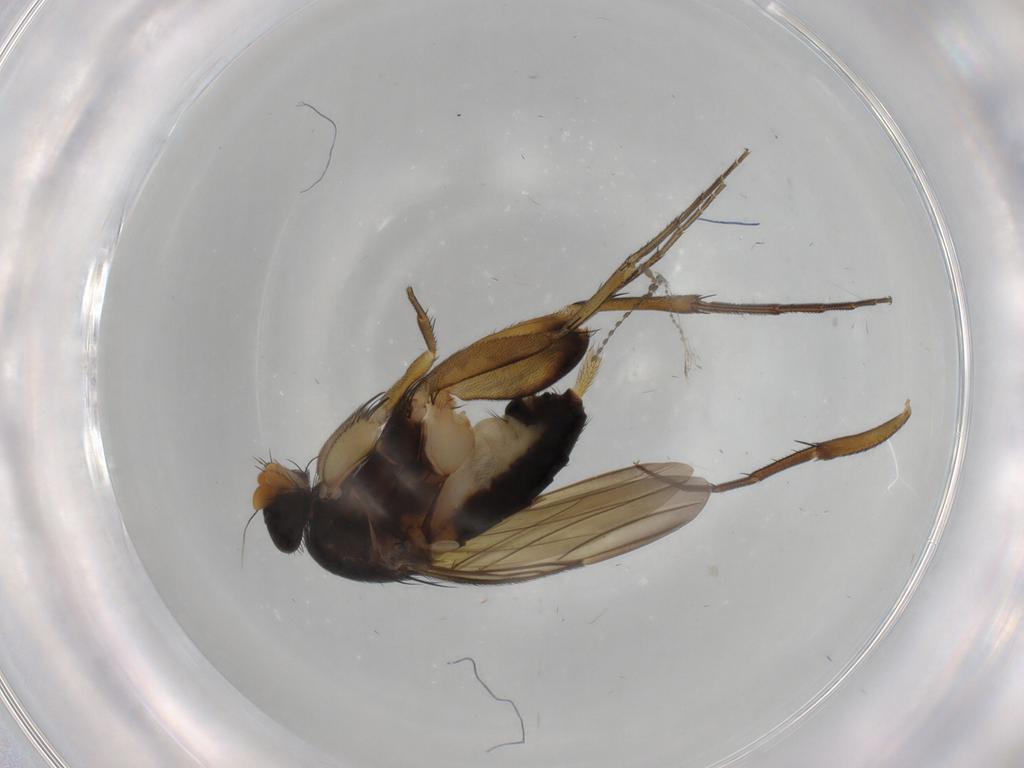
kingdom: Animalia
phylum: Arthropoda
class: Insecta
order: Diptera
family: Phoridae
